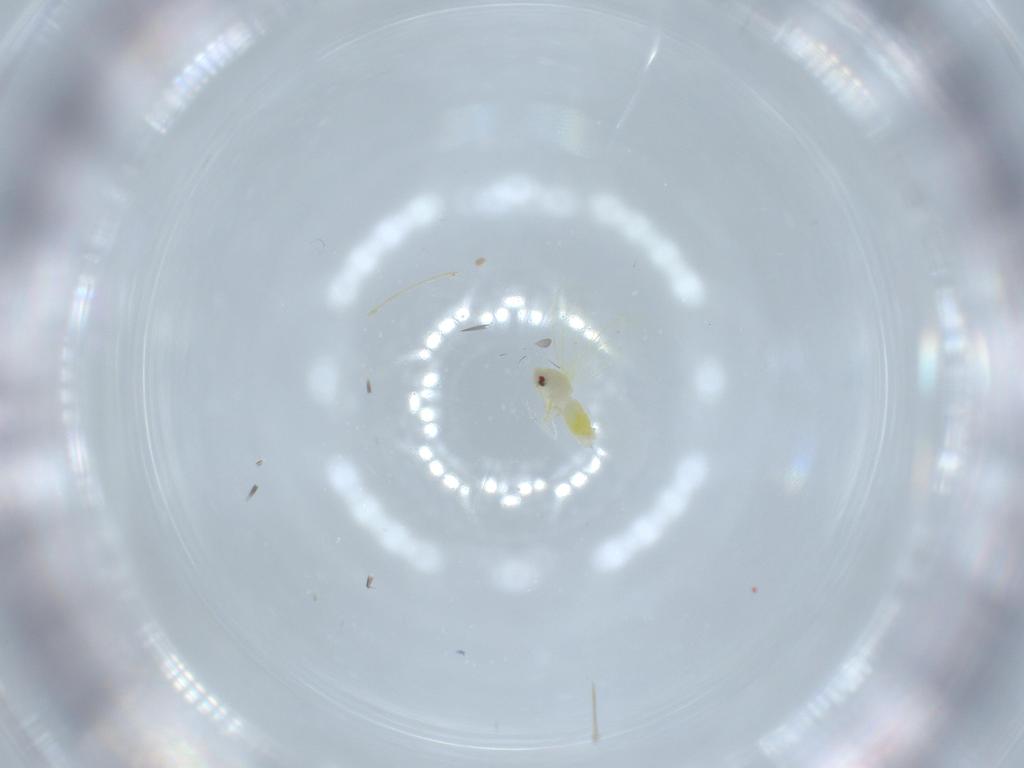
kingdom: Animalia
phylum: Arthropoda
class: Insecta
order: Hemiptera
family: Aleyrodidae
